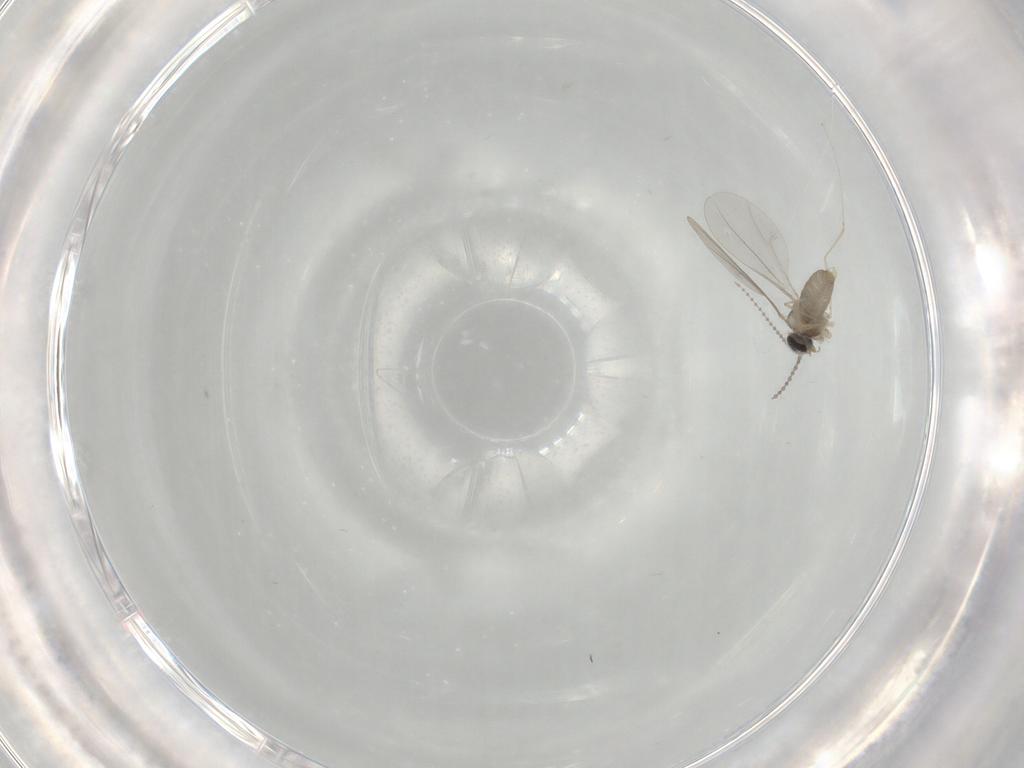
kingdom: Animalia
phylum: Arthropoda
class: Insecta
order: Diptera
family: Cecidomyiidae
